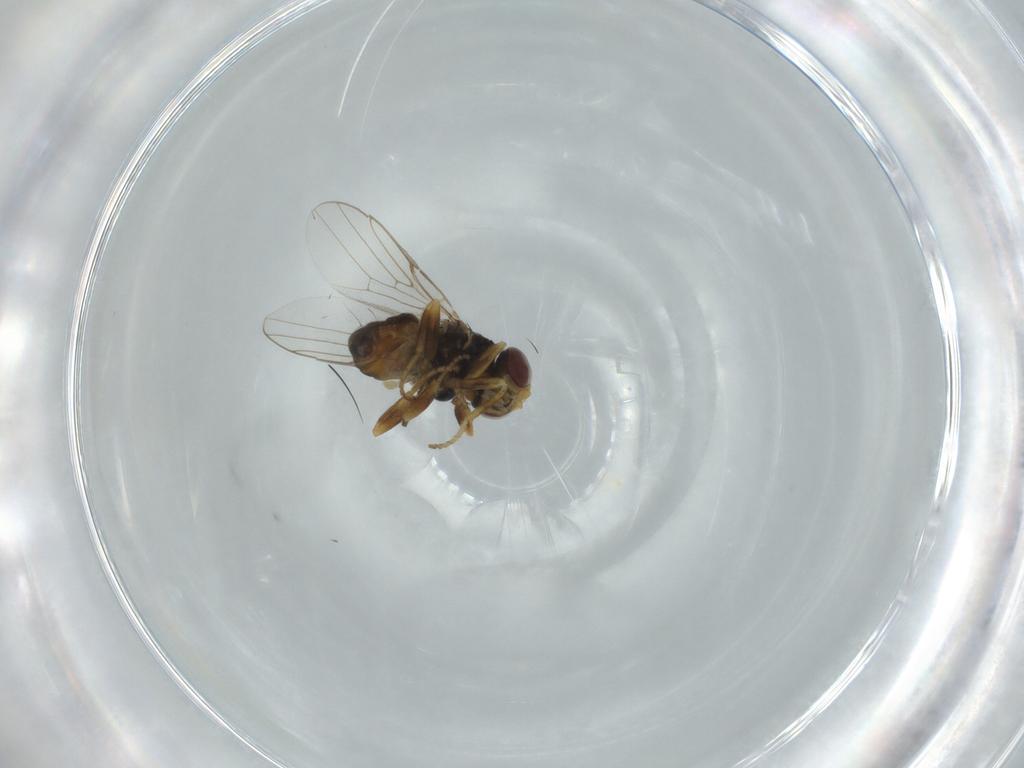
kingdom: Animalia
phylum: Arthropoda
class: Insecta
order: Diptera
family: Chloropidae
